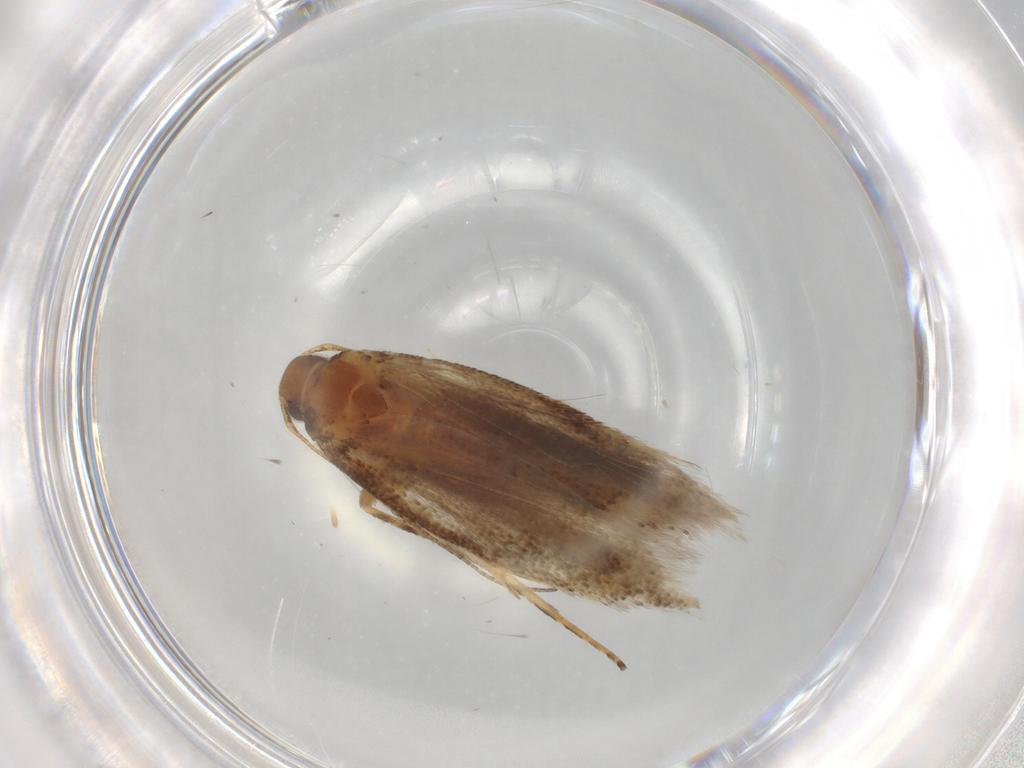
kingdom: Animalia
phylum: Arthropoda
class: Insecta
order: Lepidoptera
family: Gelechiidae
